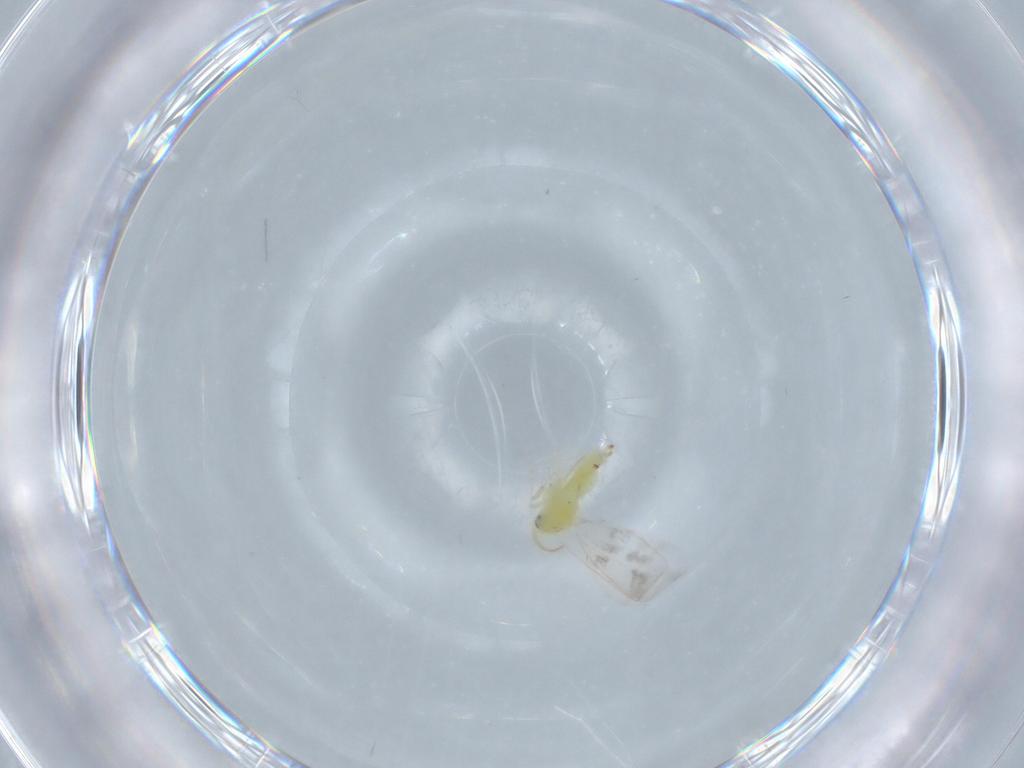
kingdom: Animalia
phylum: Arthropoda
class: Insecta
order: Hemiptera
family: Aleyrodidae
